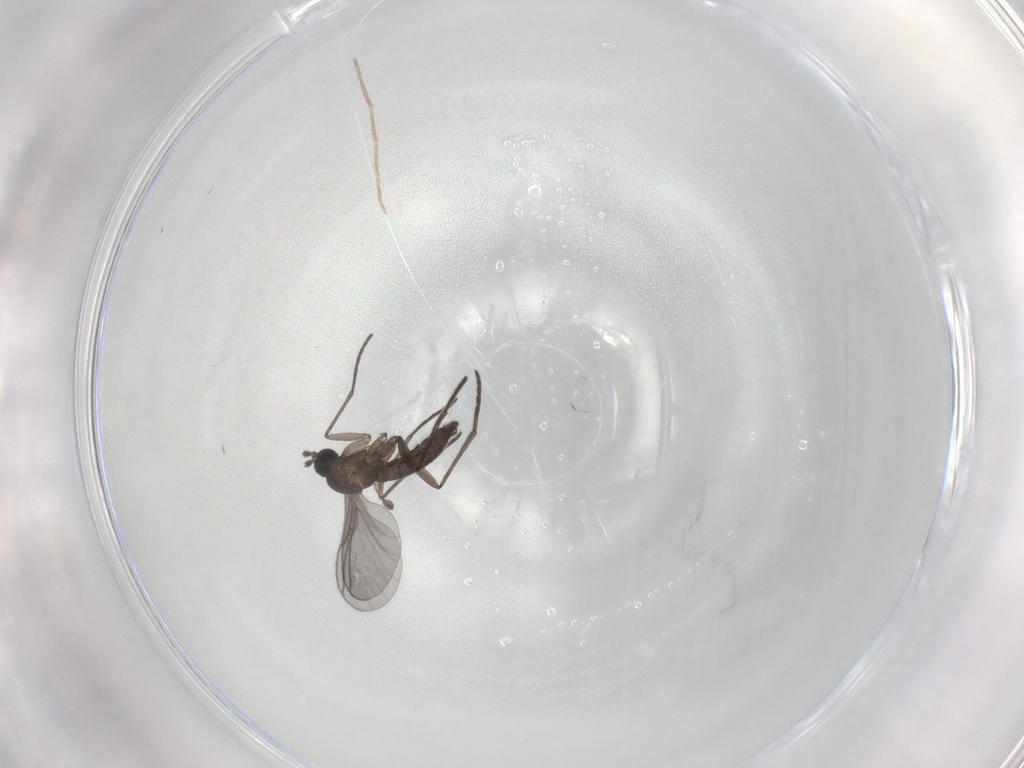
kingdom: Animalia
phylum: Arthropoda
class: Insecta
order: Diptera
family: Sciaridae
